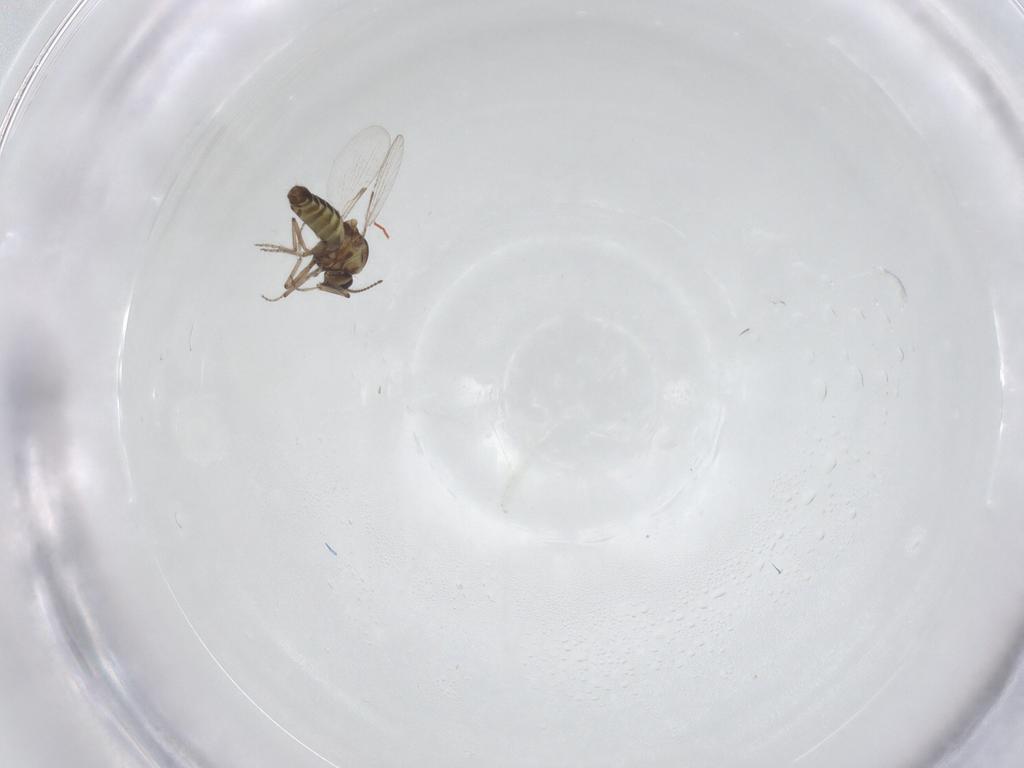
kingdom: Animalia
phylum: Arthropoda
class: Insecta
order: Diptera
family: Ceratopogonidae
